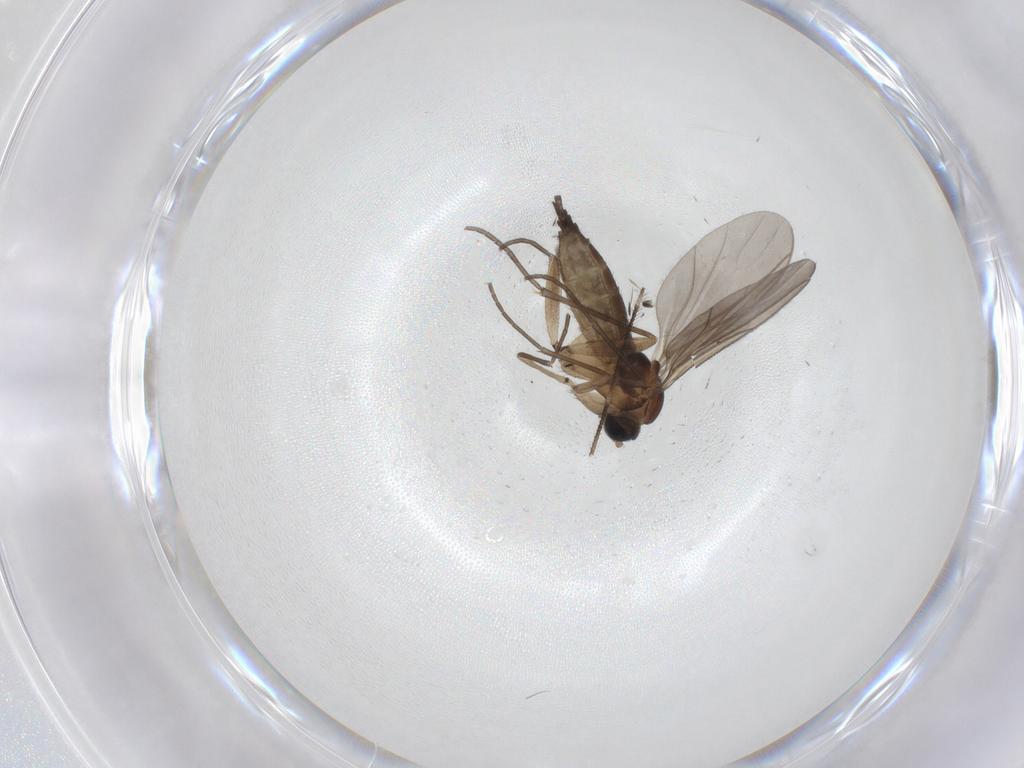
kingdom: Animalia
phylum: Arthropoda
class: Insecta
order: Diptera
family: Sciaridae
